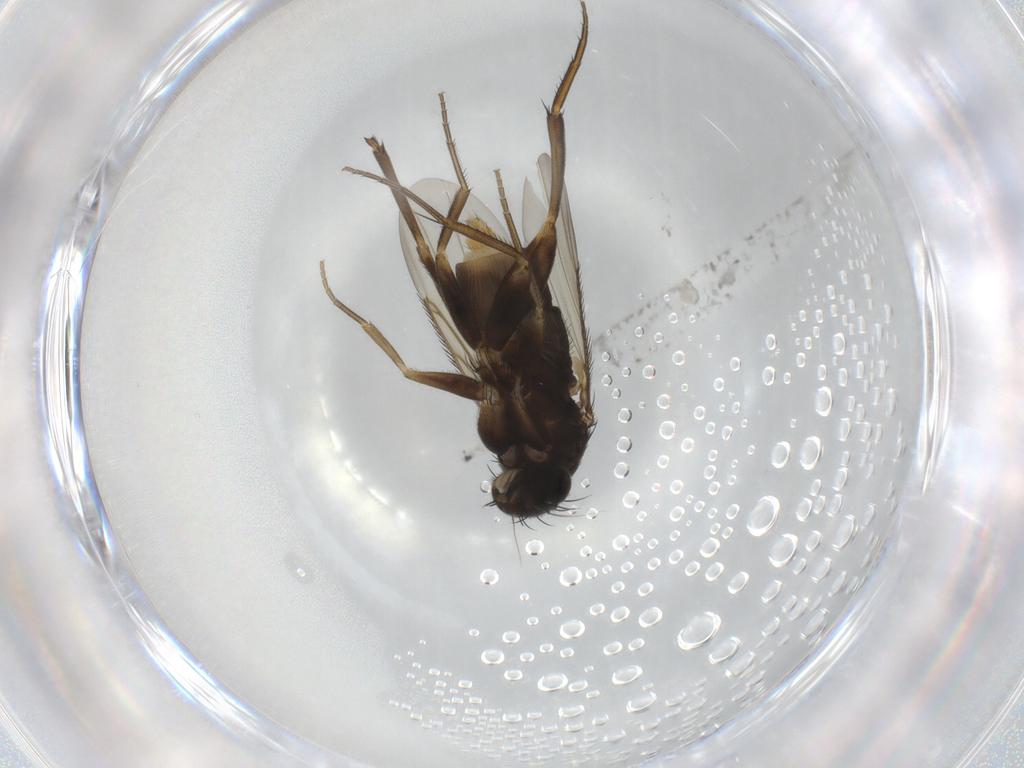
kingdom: Animalia
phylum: Arthropoda
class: Insecta
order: Diptera
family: Phoridae
